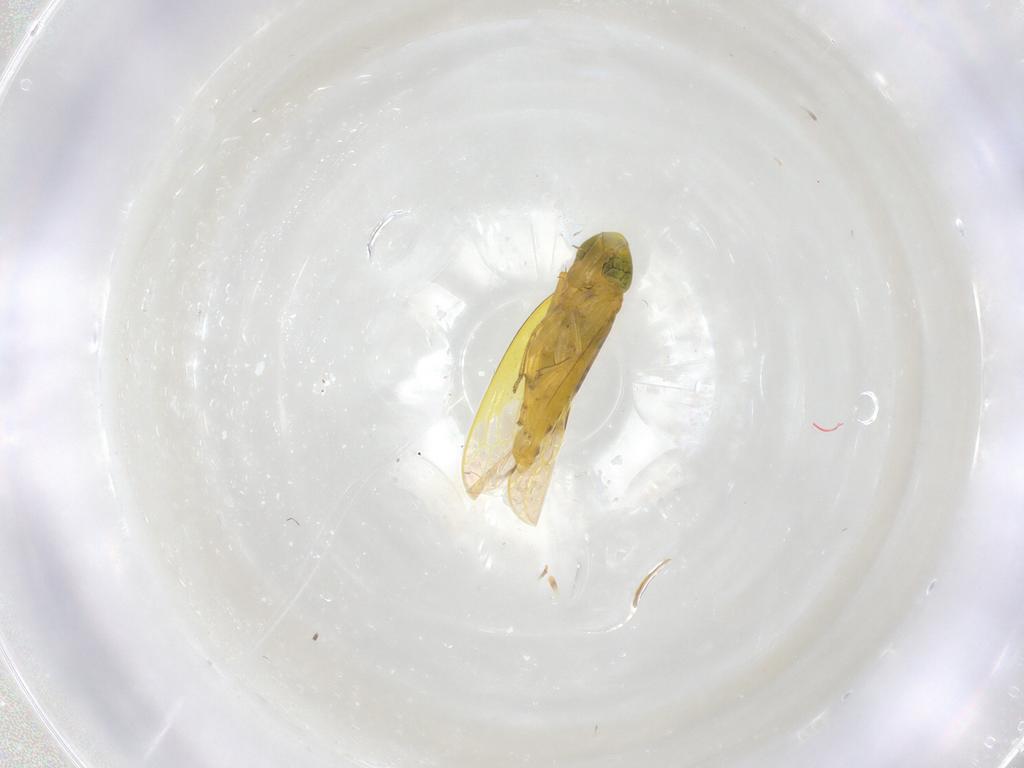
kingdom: Animalia
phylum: Arthropoda
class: Insecta
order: Hemiptera
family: Cicadellidae
